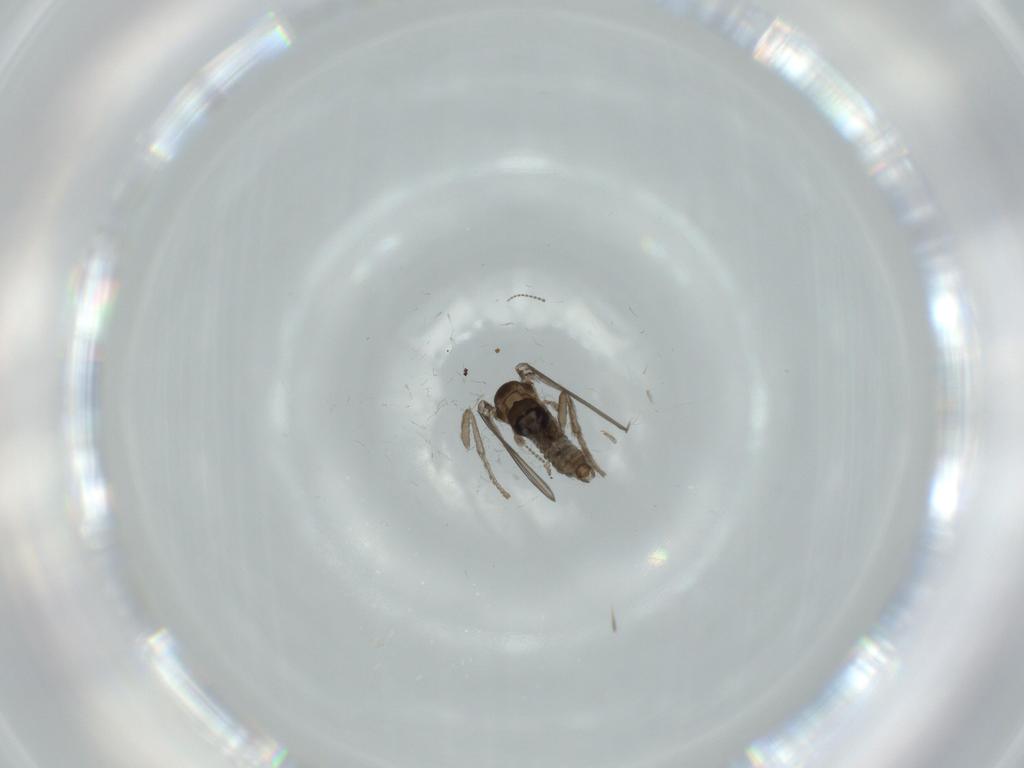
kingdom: Animalia
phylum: Arthropoda
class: Insecta
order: Diptera
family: Psychodidae
